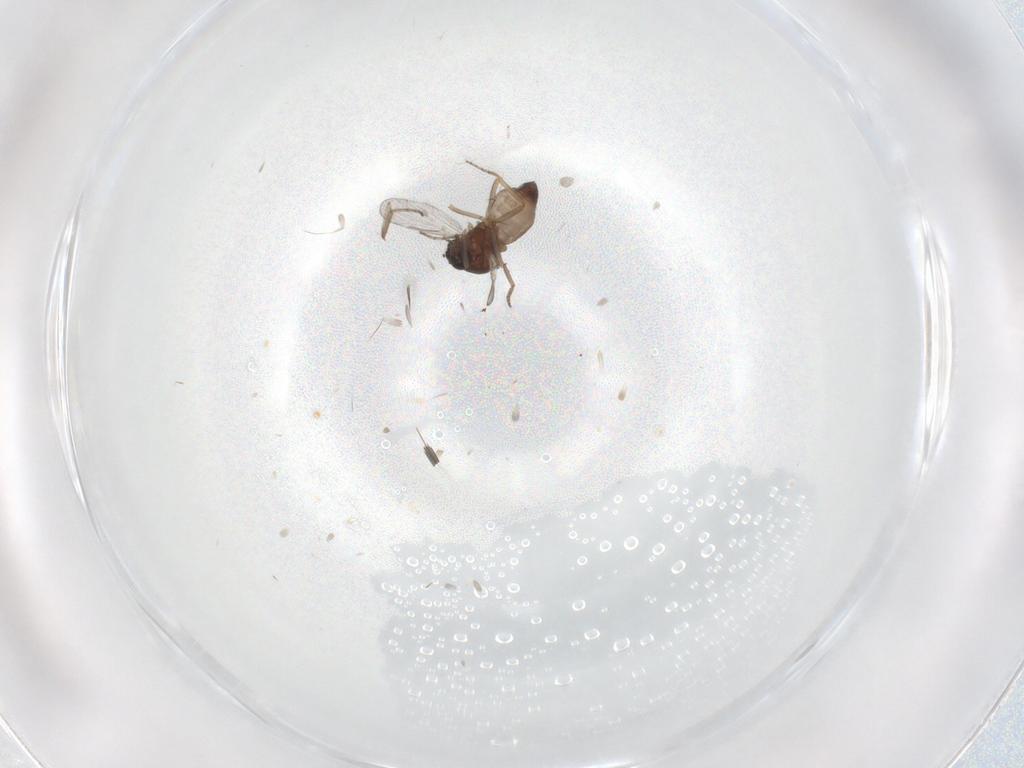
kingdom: Animalia
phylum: Arthropoda
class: Insecta
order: Diptera
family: Ceratopogonidae
